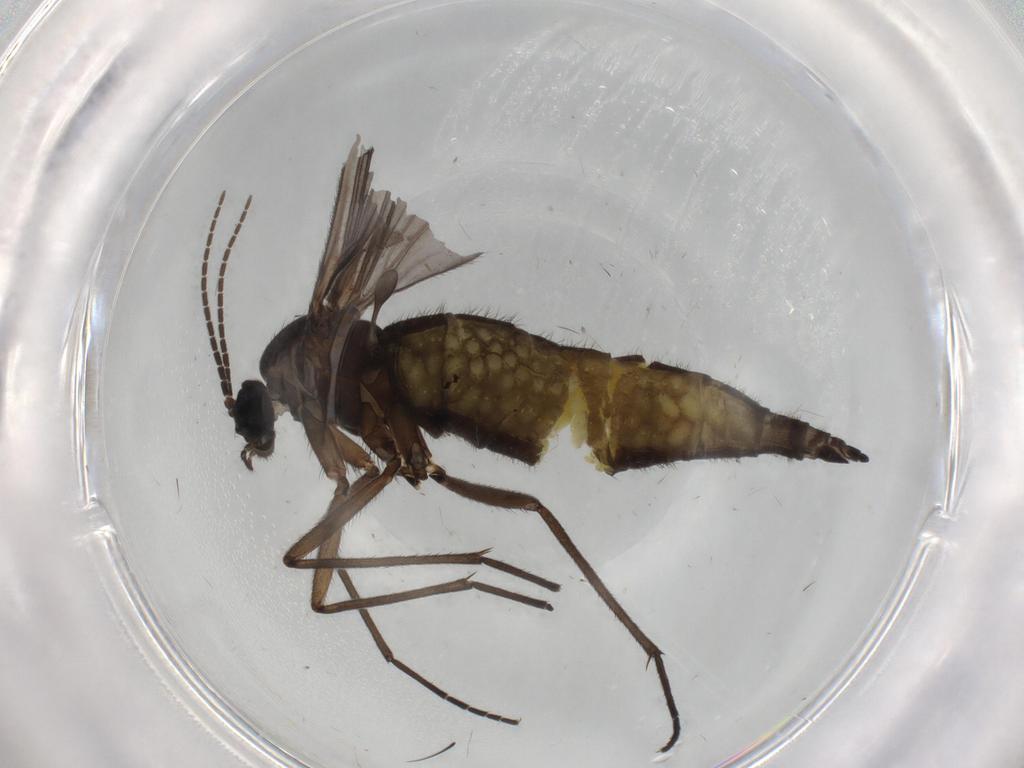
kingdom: Animalia
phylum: Arthropoda
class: Insecta
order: Diptera
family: Sciaridae
